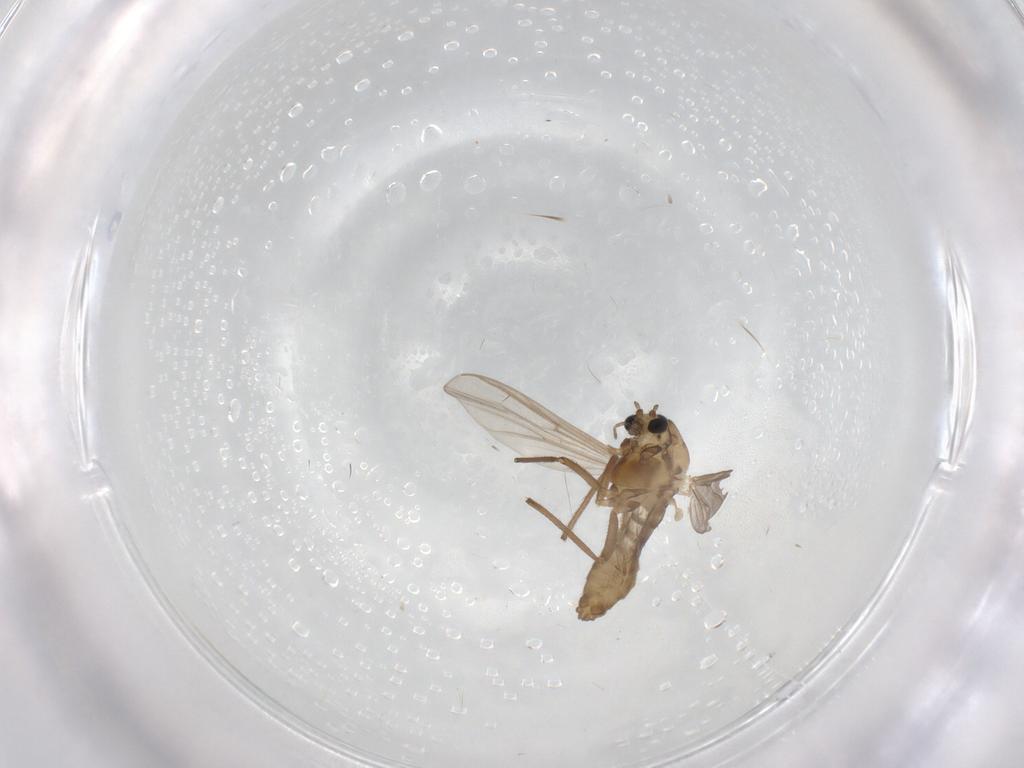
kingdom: Animalia
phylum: Arthropoda
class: Insecta
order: Diptera
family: Chironomidae
